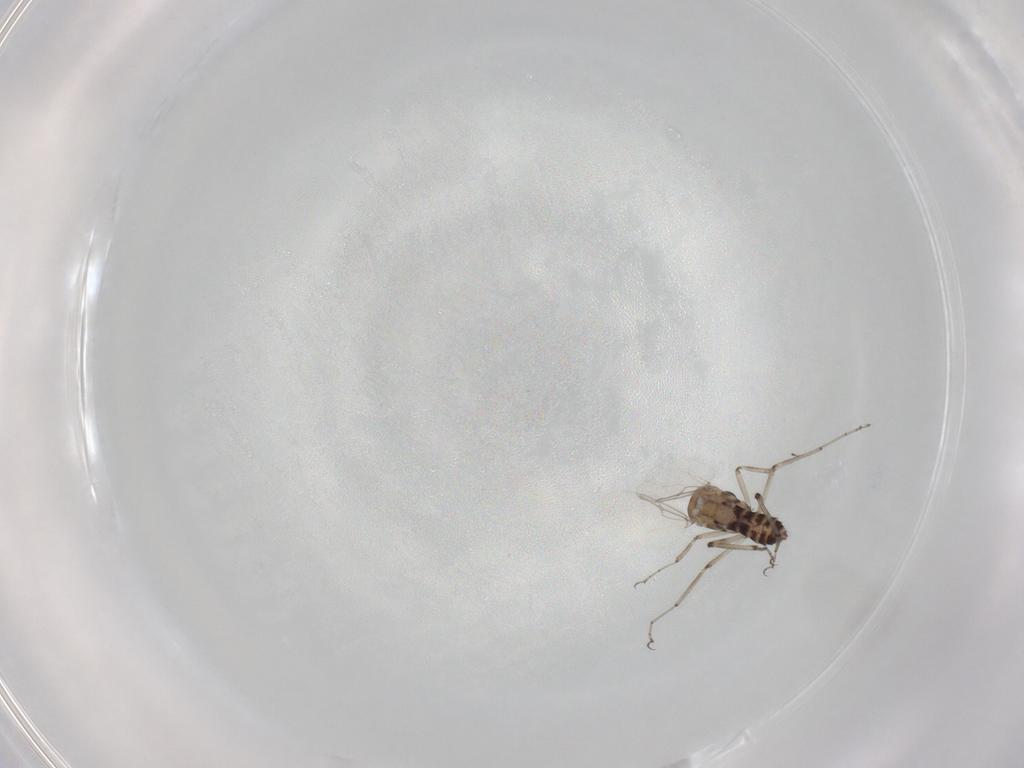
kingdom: Animalia
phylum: Arthropoda
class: Insecta
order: Diptera
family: Ceratopogonidae
